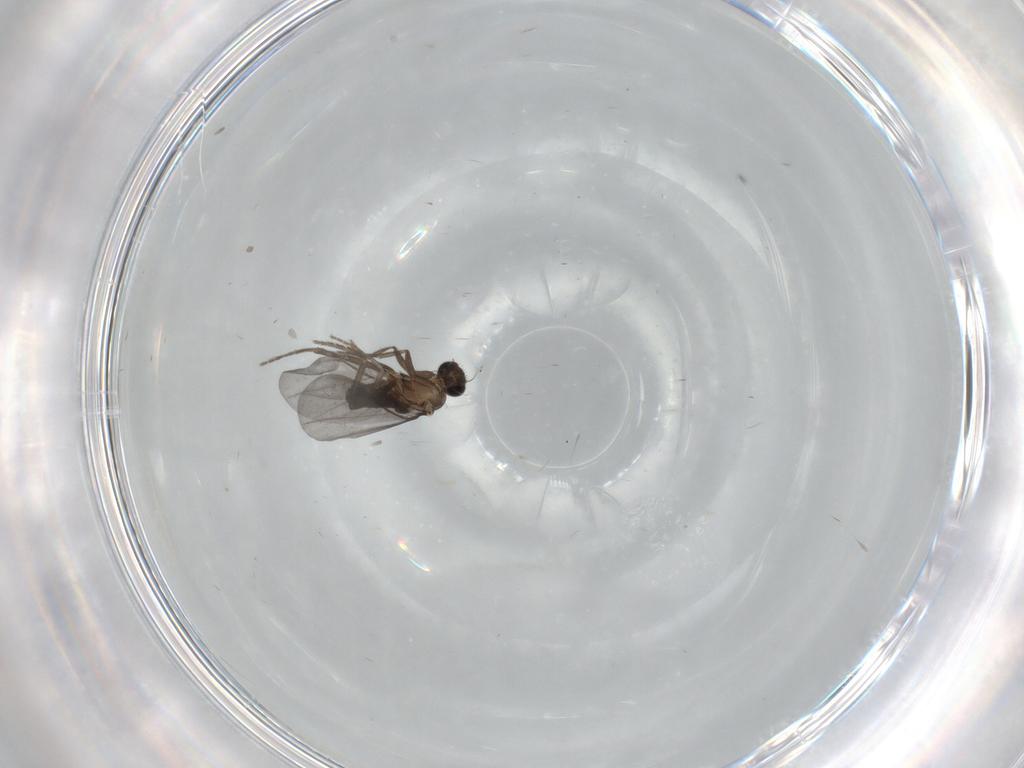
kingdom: Animalia
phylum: Arthropoda
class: Insecta
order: Diptera
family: Phoridae
